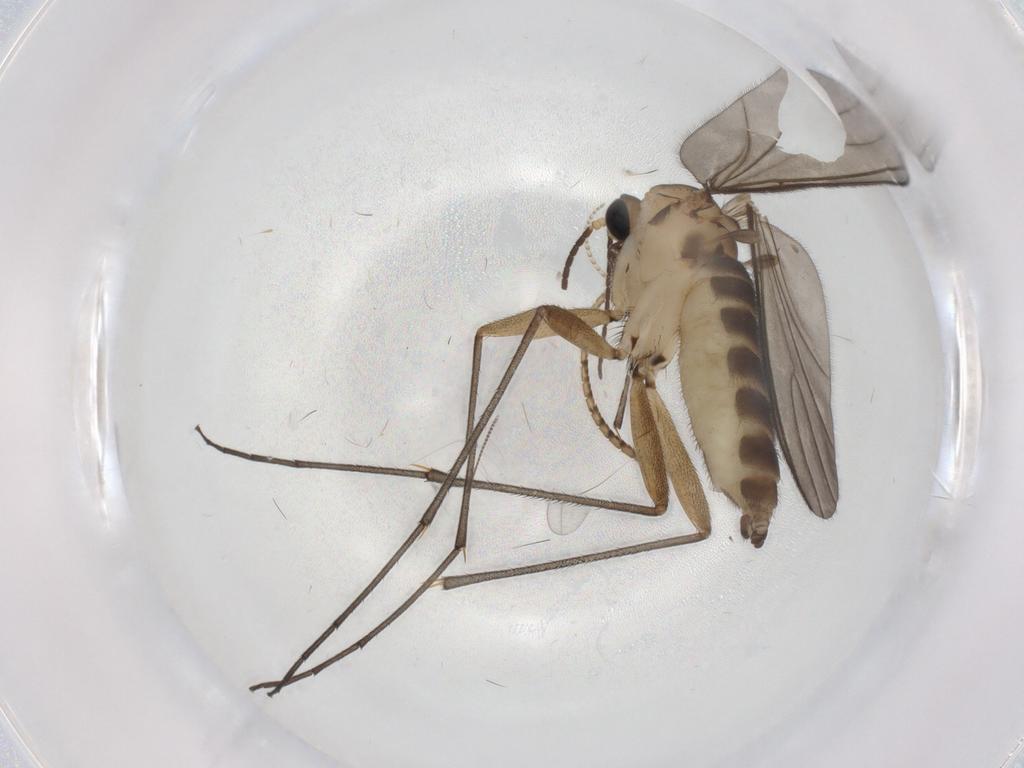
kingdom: Animalia
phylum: Arthropoda
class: Insecta
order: Diptera
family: Sciaridae
